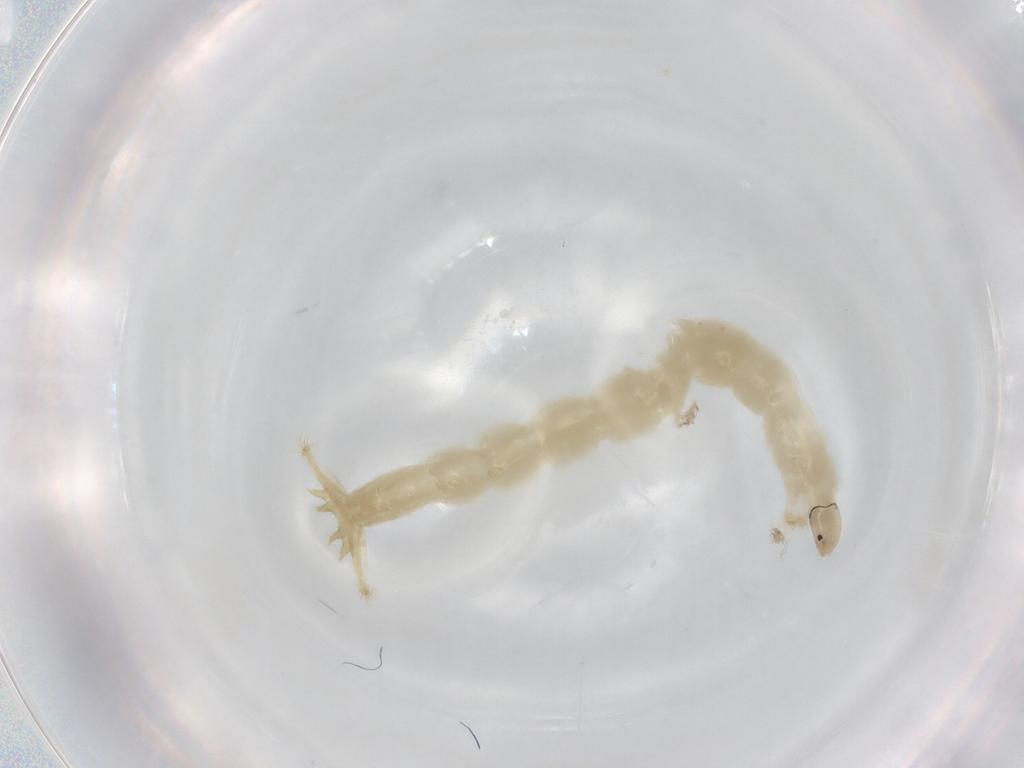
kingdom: Animalia
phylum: Arthropoda
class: Insecta
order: Diptera
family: Chironomidae
